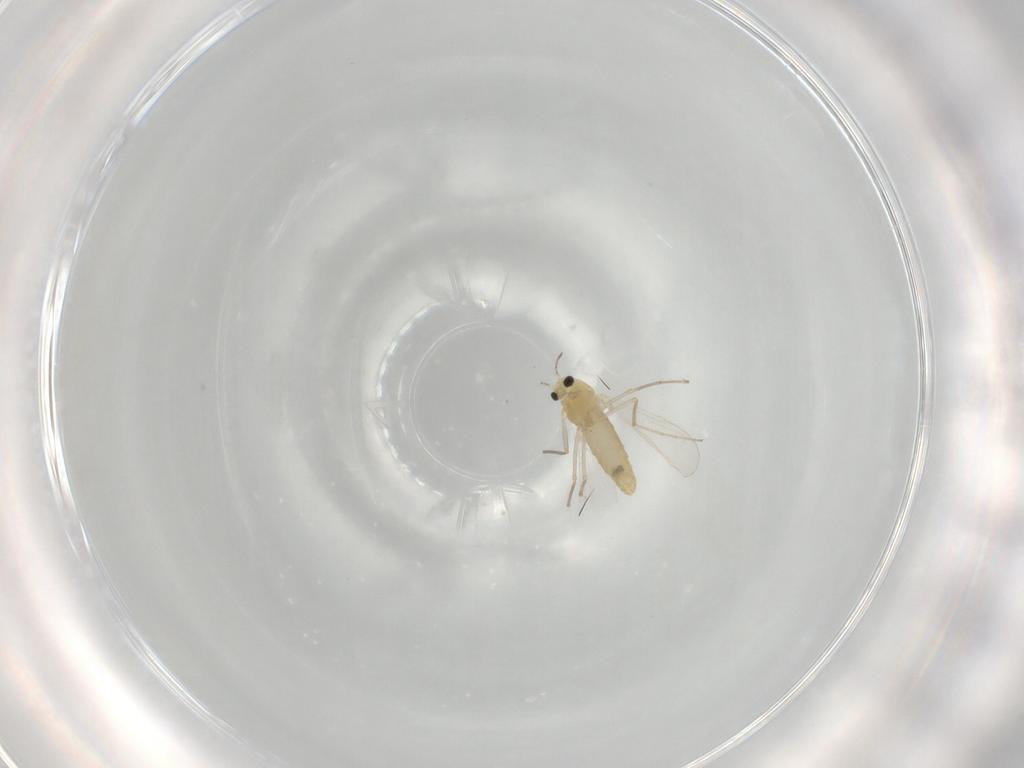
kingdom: Animalia
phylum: Arthropoda
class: Insecta
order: Diptera
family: Chironomidae
